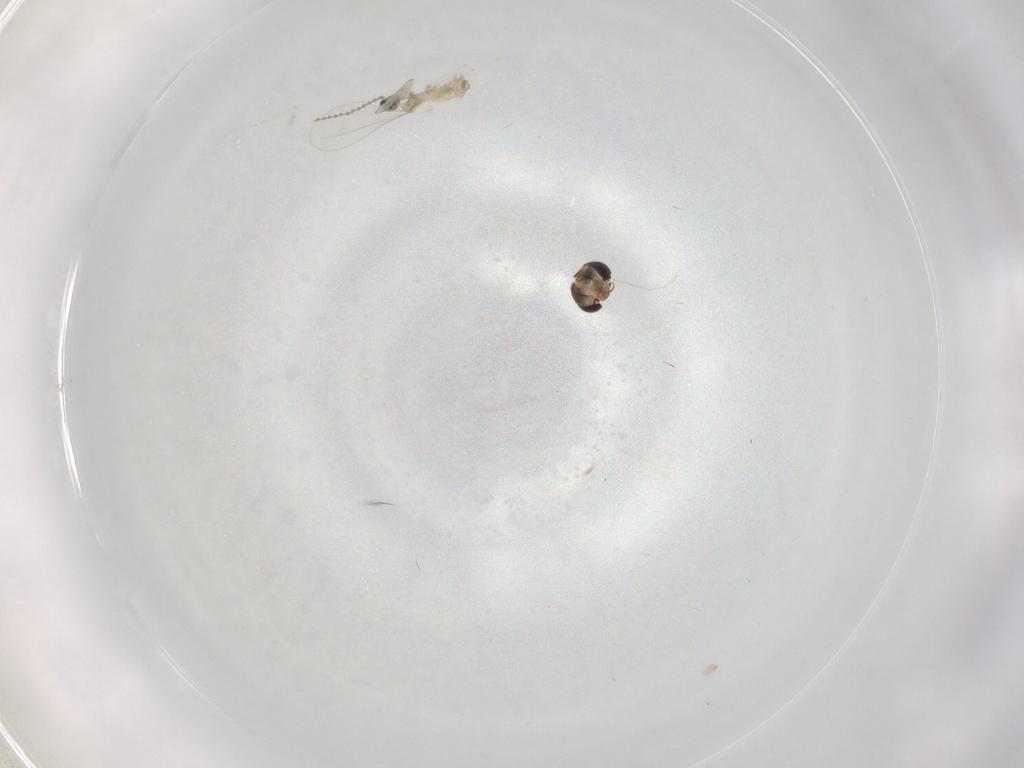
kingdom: Animalia
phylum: Arthropoda
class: Insecta
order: Diptera
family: Cecidomyiidae
